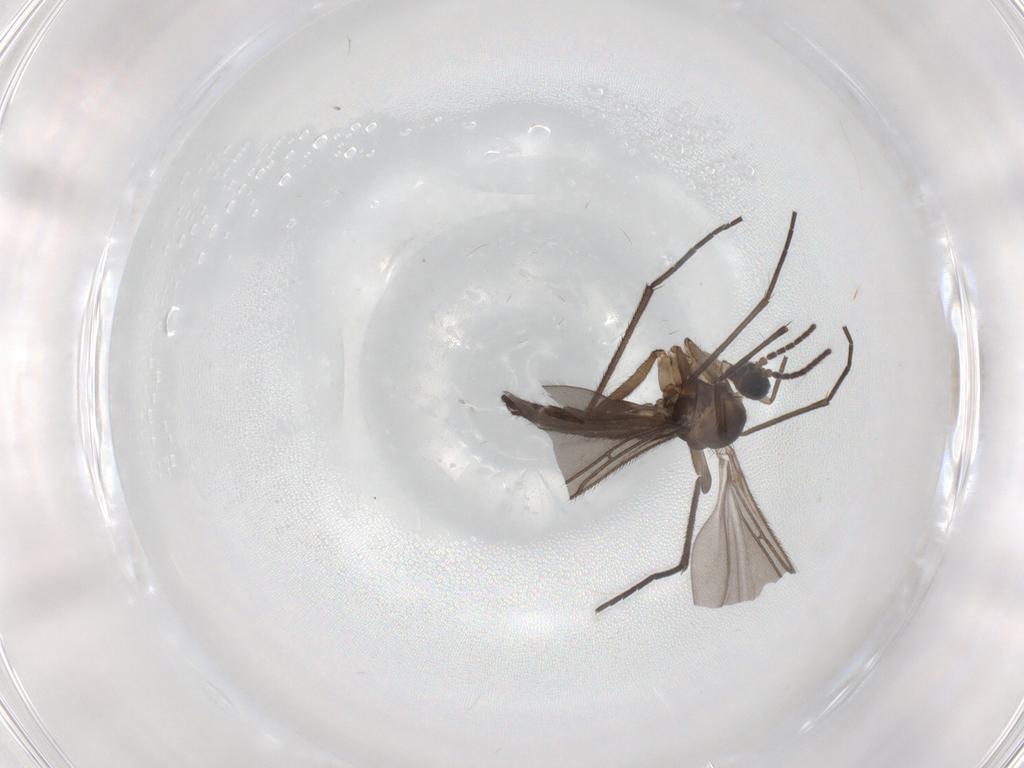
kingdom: Animalia
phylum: Arthropoda
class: Insecta
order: Diptera
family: Sciaridae
